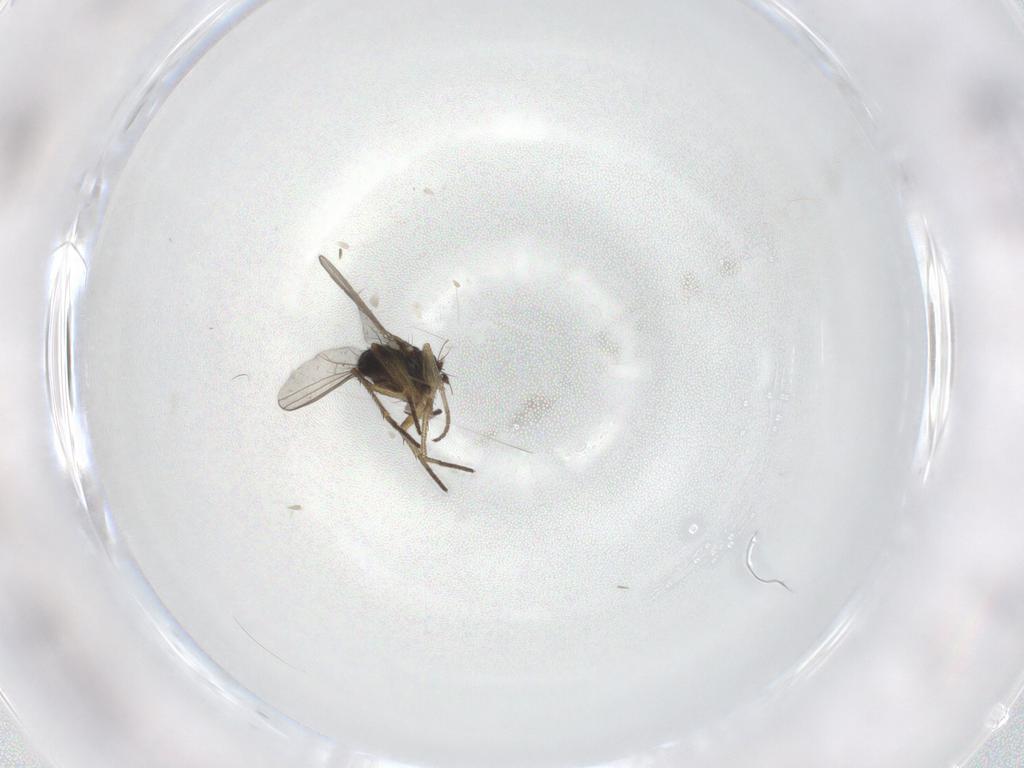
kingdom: Animalia
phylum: Arthropoda
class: Insecta
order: Diptera
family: Dolichopodidae
